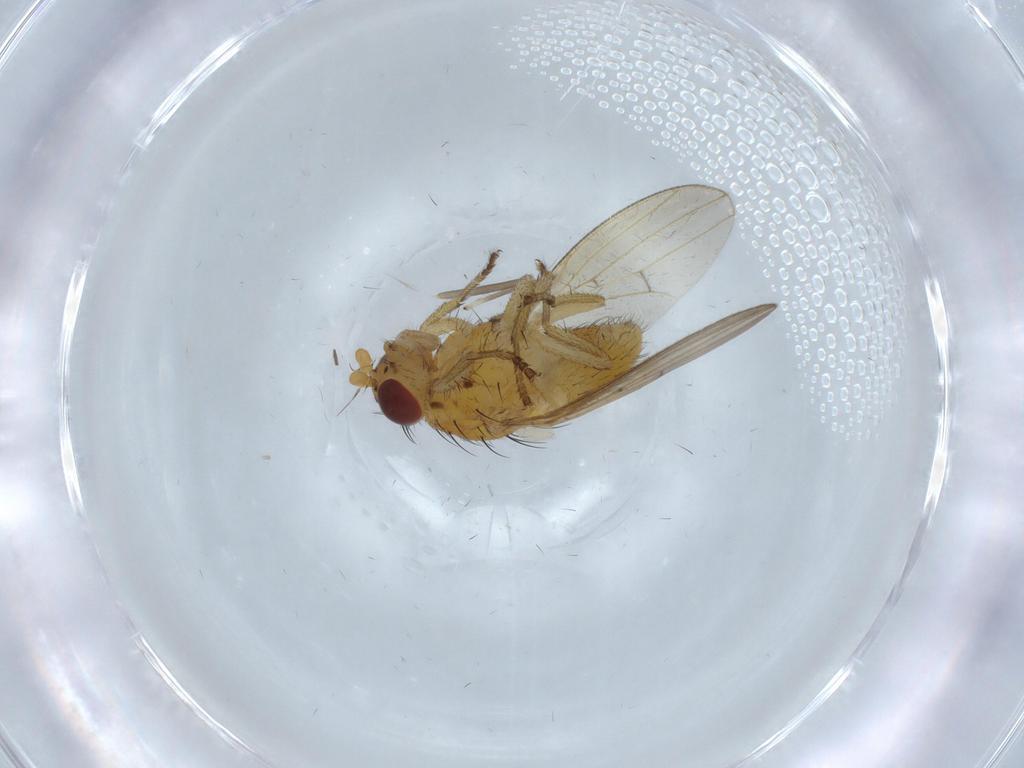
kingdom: Animalia
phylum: Arthropoda
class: Insecta
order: Diptera
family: Limoniidae
